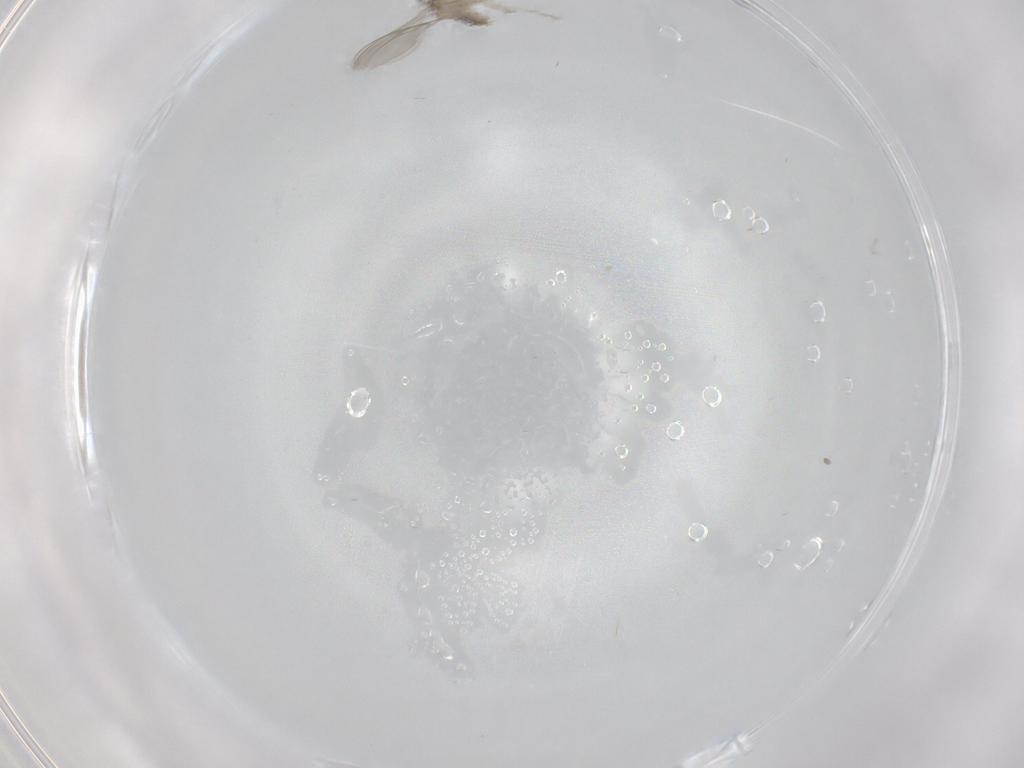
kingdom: Animalia
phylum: Arthropoda
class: Insecta
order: Diptera
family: Cecidomyiidae
